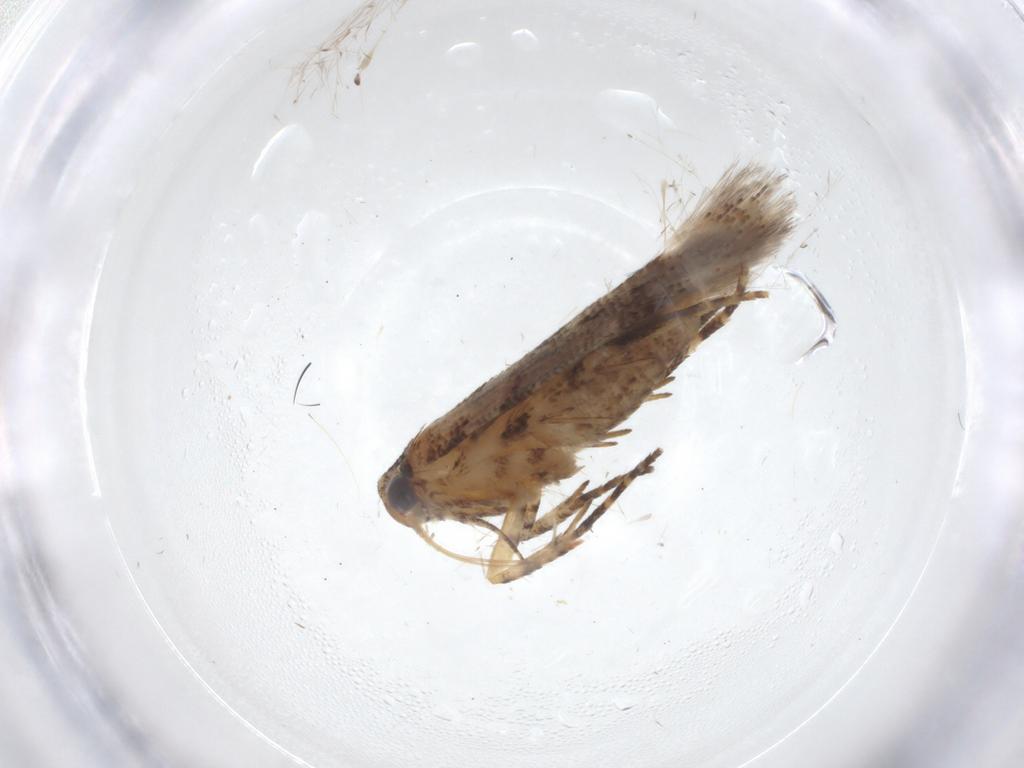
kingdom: Animalia
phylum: Arthropoda
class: Insecta
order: Lepidoptera
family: Gelechiidae
